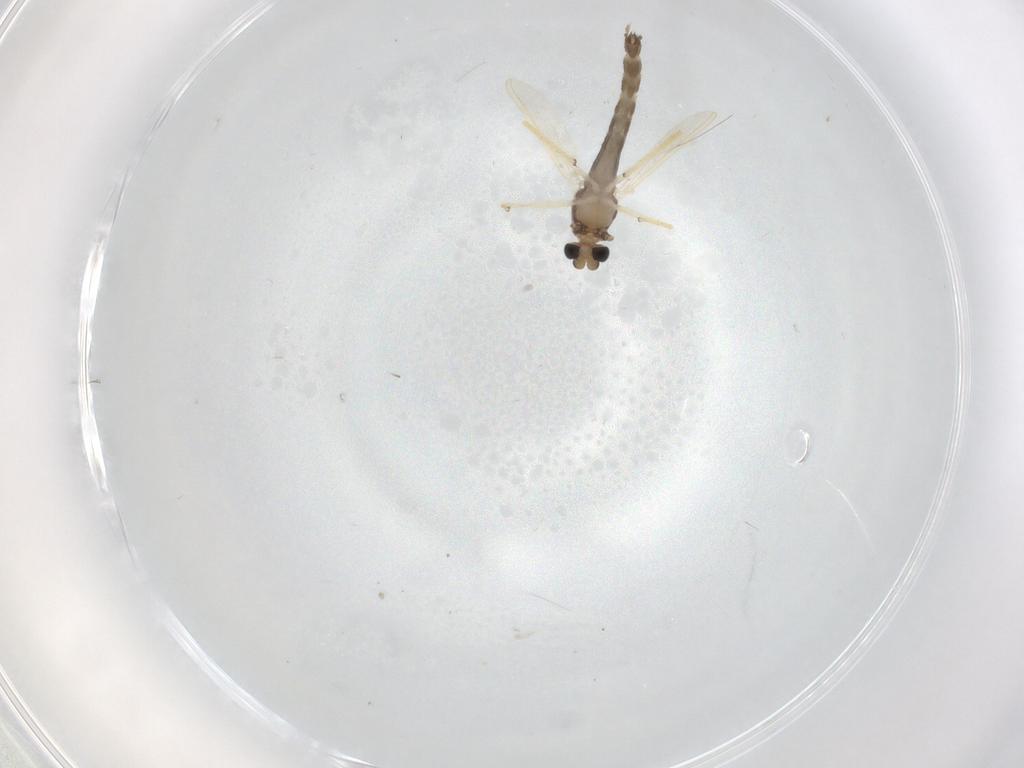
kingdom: Animalia
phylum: Arthropoda
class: Insecta
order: Diptera
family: Chironomidae
